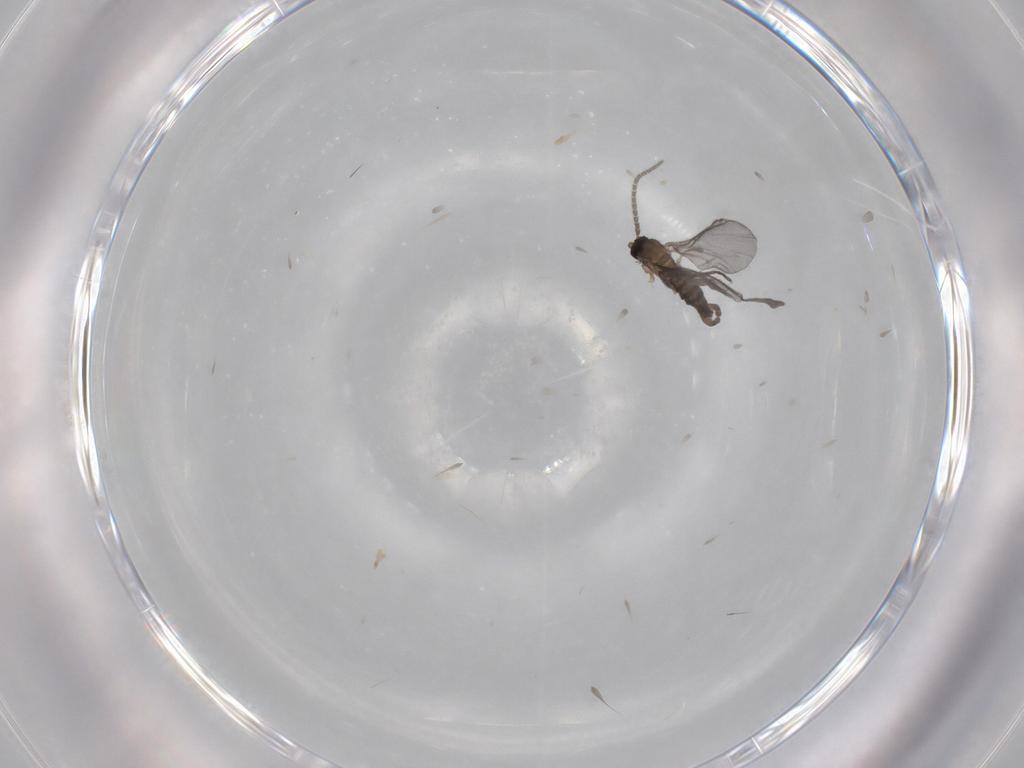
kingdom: Animalia
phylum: Arthropoda
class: Insecta
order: Diptera
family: Sciaridae
